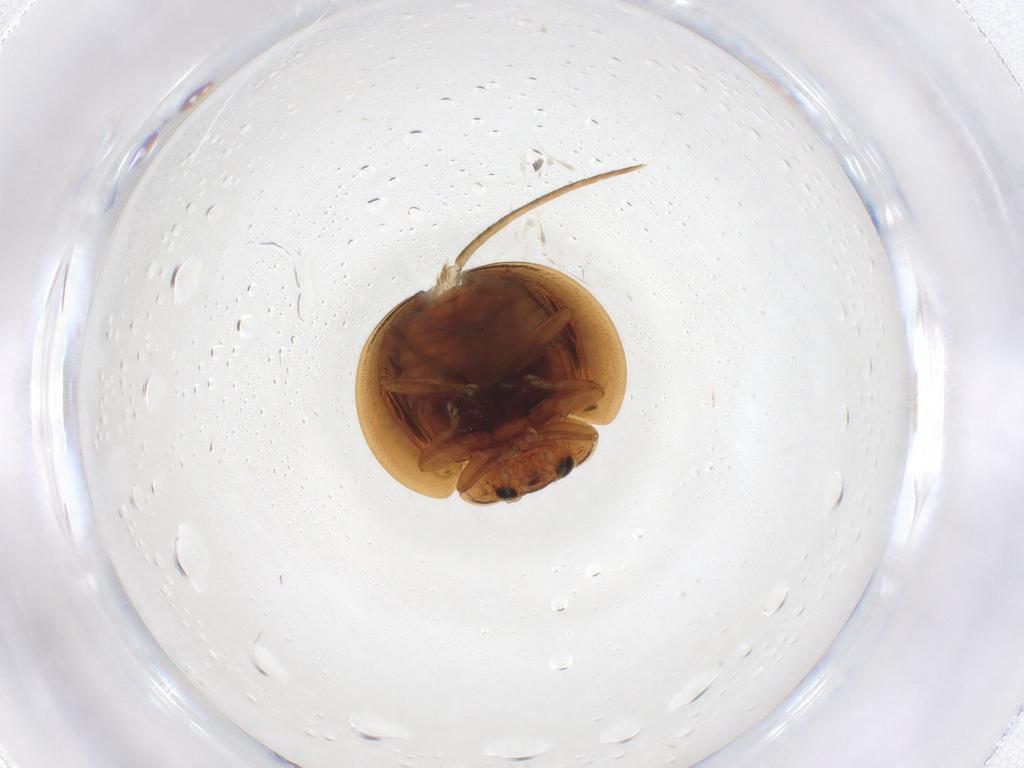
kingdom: Animalia
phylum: Arthropoda
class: Insecta
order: Coleoptera
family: Coccinellidae
